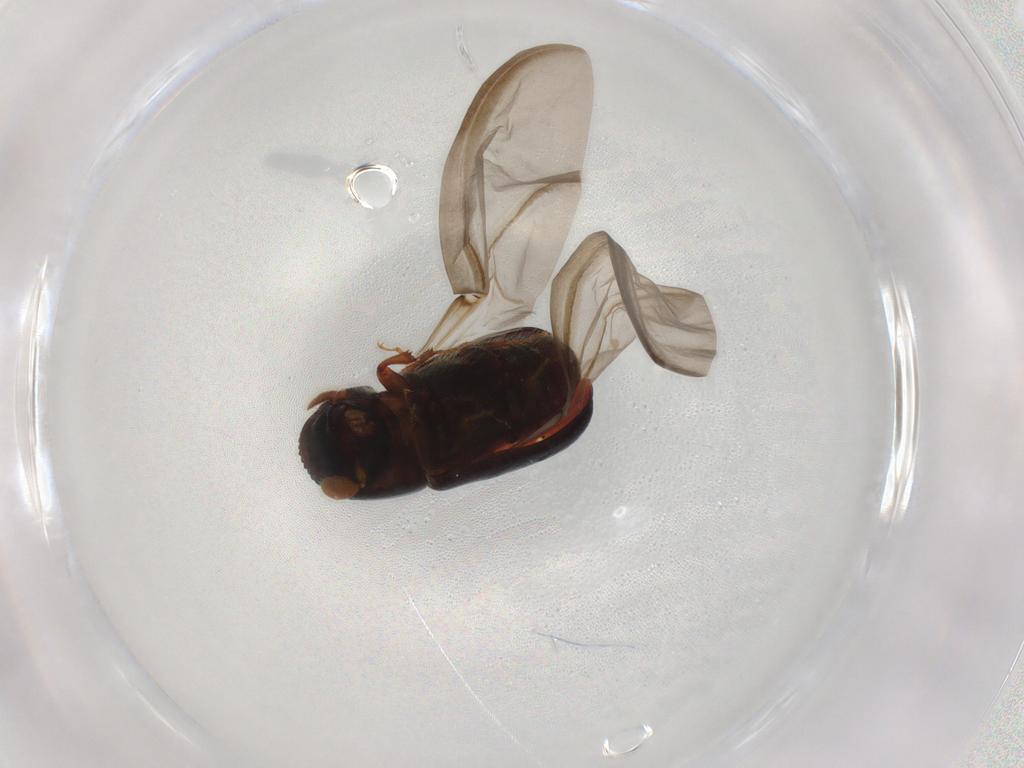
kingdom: Animalia
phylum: Arthropoda
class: Insecta
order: Coleoptera
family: Curculionidae
